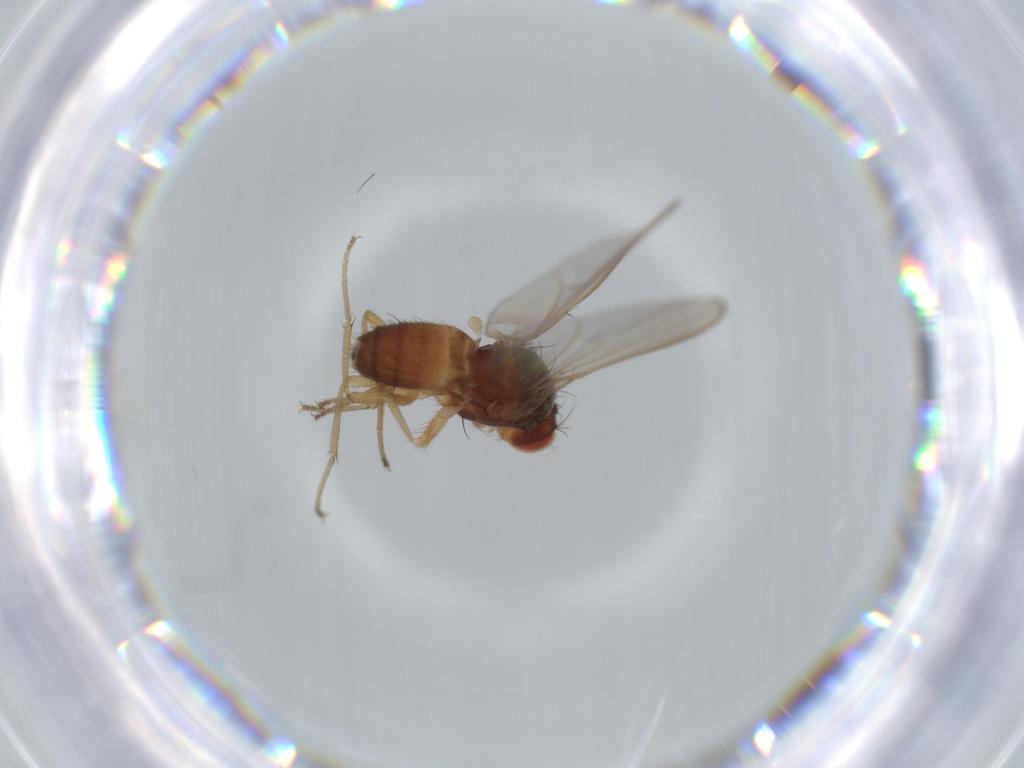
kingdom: Animalia
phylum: Arthropoda
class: Insecta
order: Diptera
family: Drosophilidae
